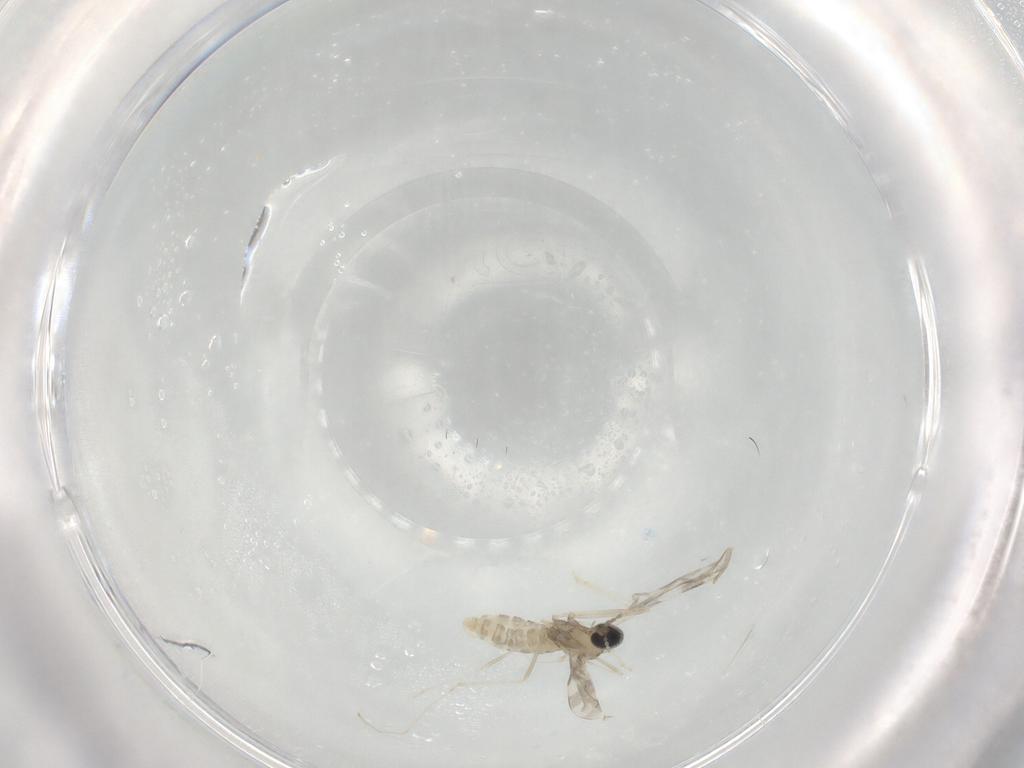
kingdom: Animalia
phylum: Arthropoda
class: Insecta
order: Diptera
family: Cecidomyiidae
